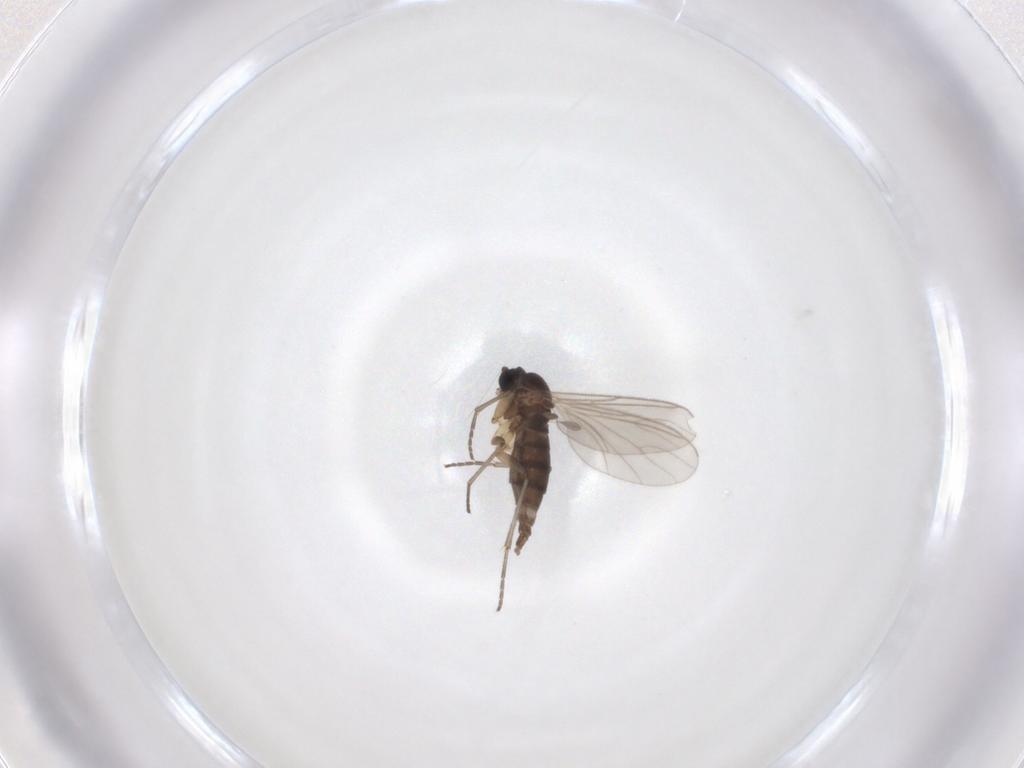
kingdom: Animalia
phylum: Arthropoda
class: Insecta
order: Diptera
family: Sciaridae
